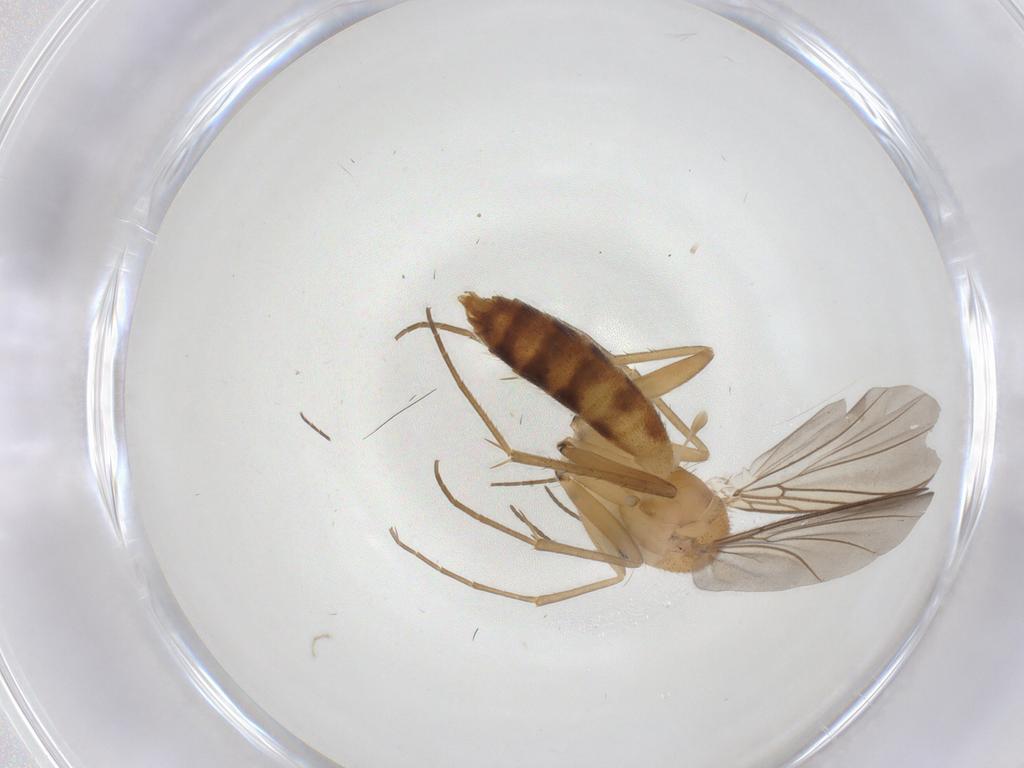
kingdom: Animalia
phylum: Arthropoda
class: Insecta
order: Diptera
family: Mycetophilidae
